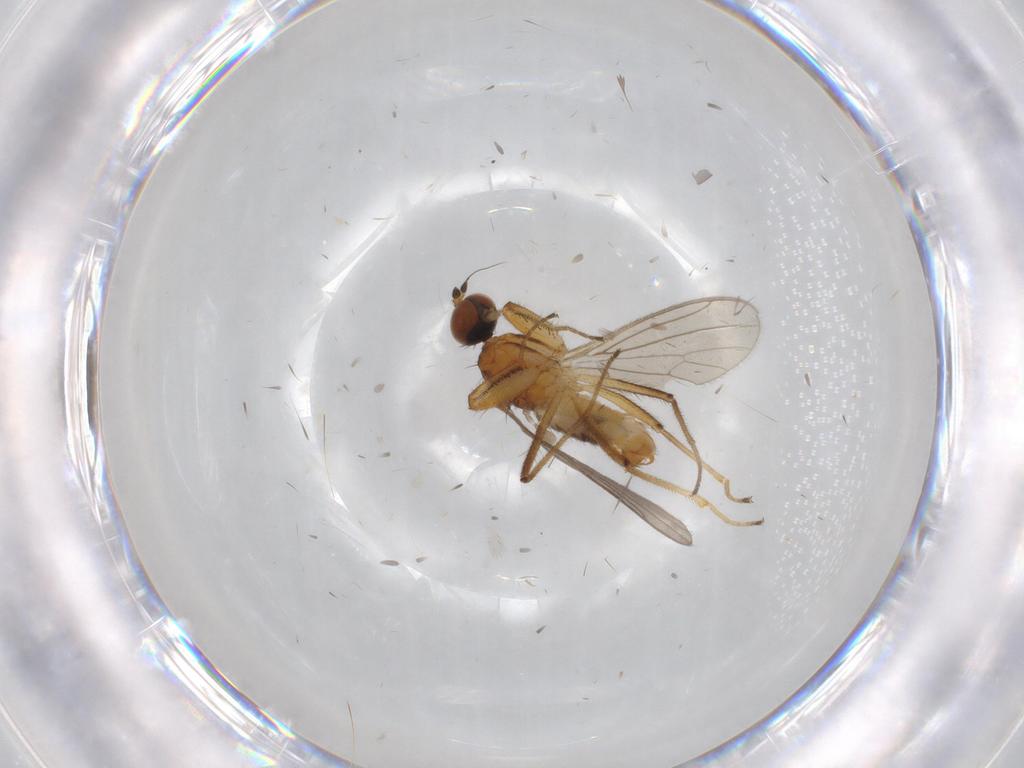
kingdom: Animalia
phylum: Arthropoda
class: Insecta
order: Diptera
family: Empididae
